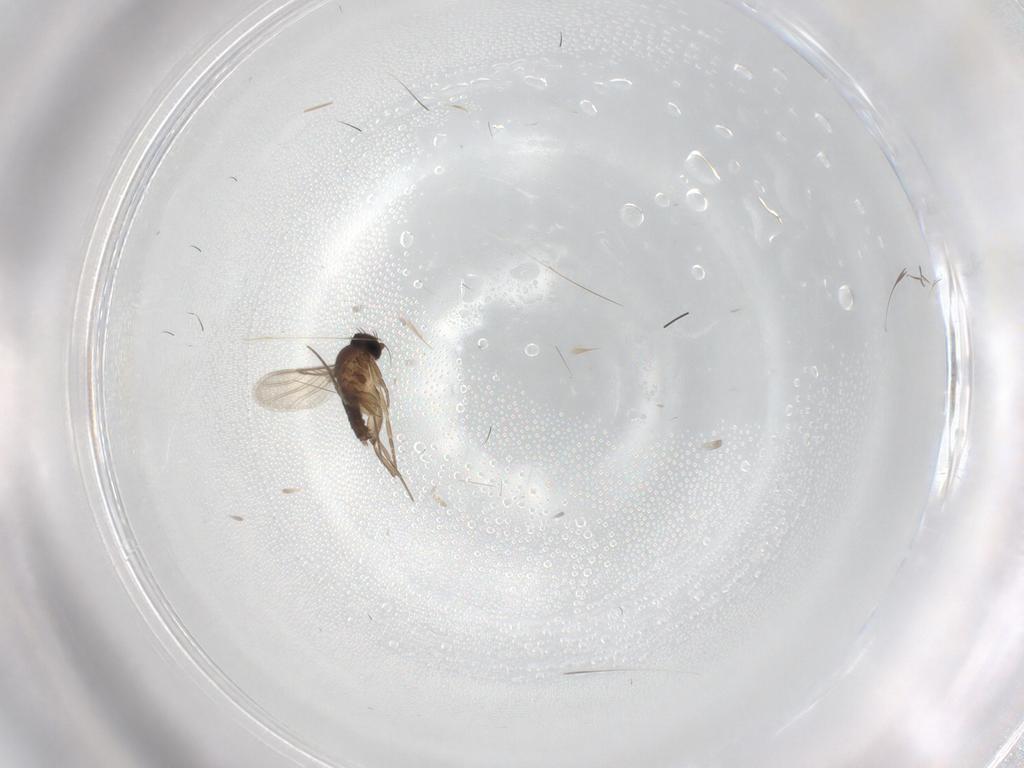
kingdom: Animalia
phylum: Arthropoda
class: Insecta
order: Diptera
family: Phoridae
